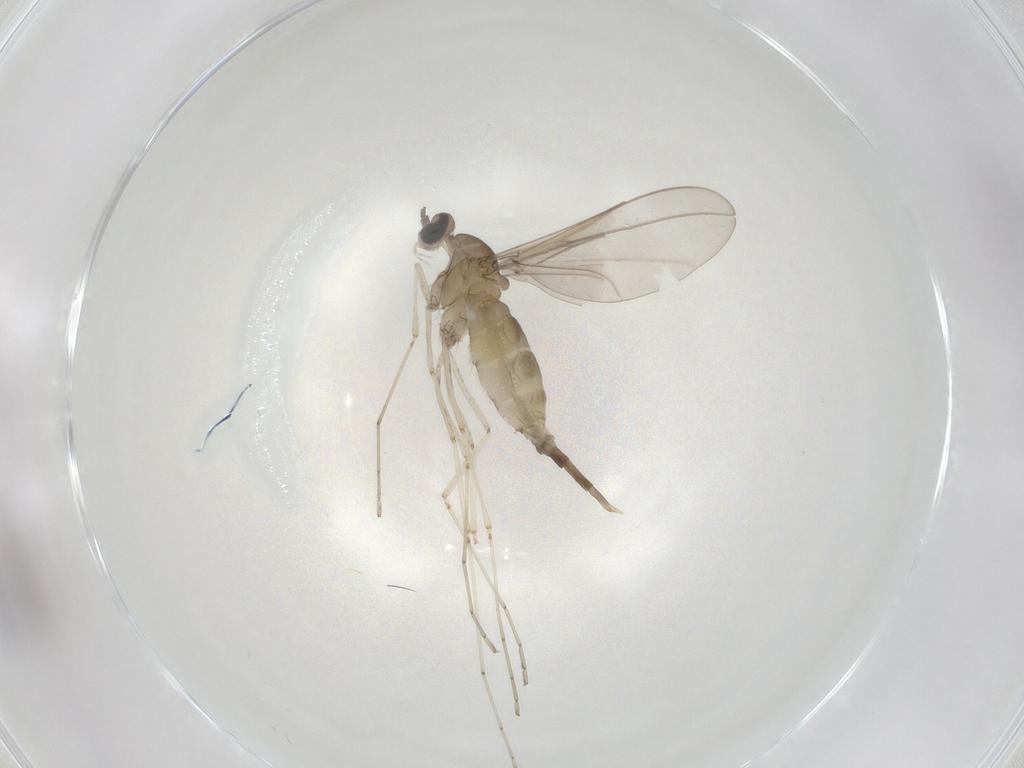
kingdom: Animalia
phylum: Arthropoda
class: Insecta
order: Diptera
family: Cecidomyiidae
